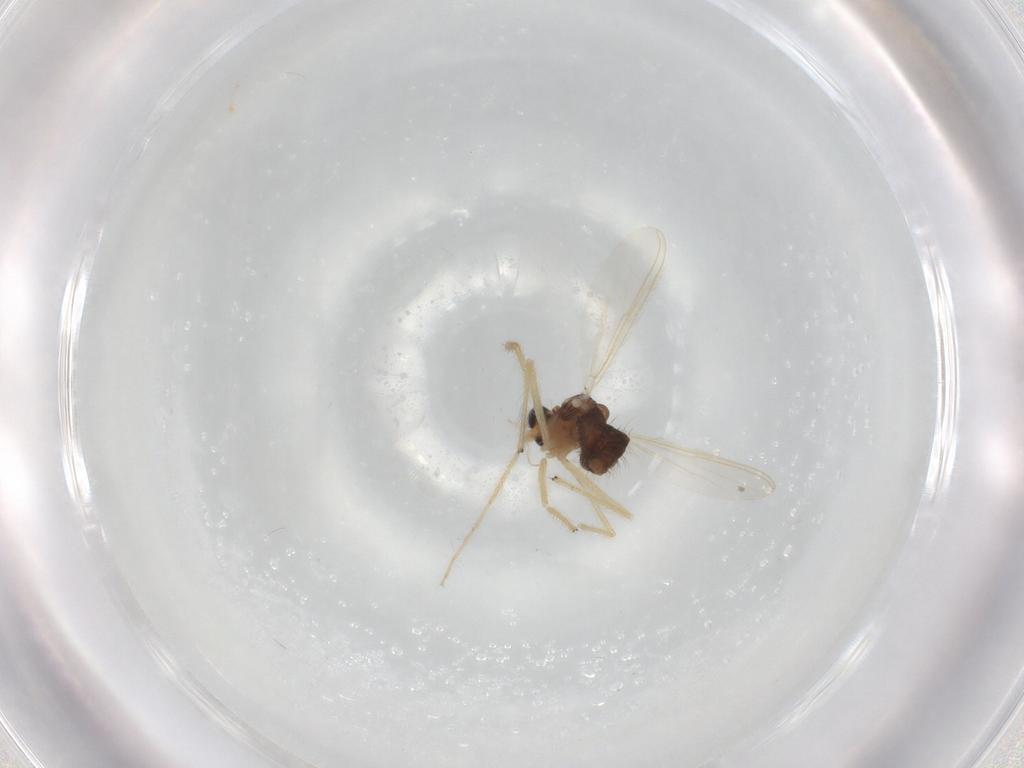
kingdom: Animalia
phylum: Arthropoda
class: Insecta
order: Diptera
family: Chironomidae
